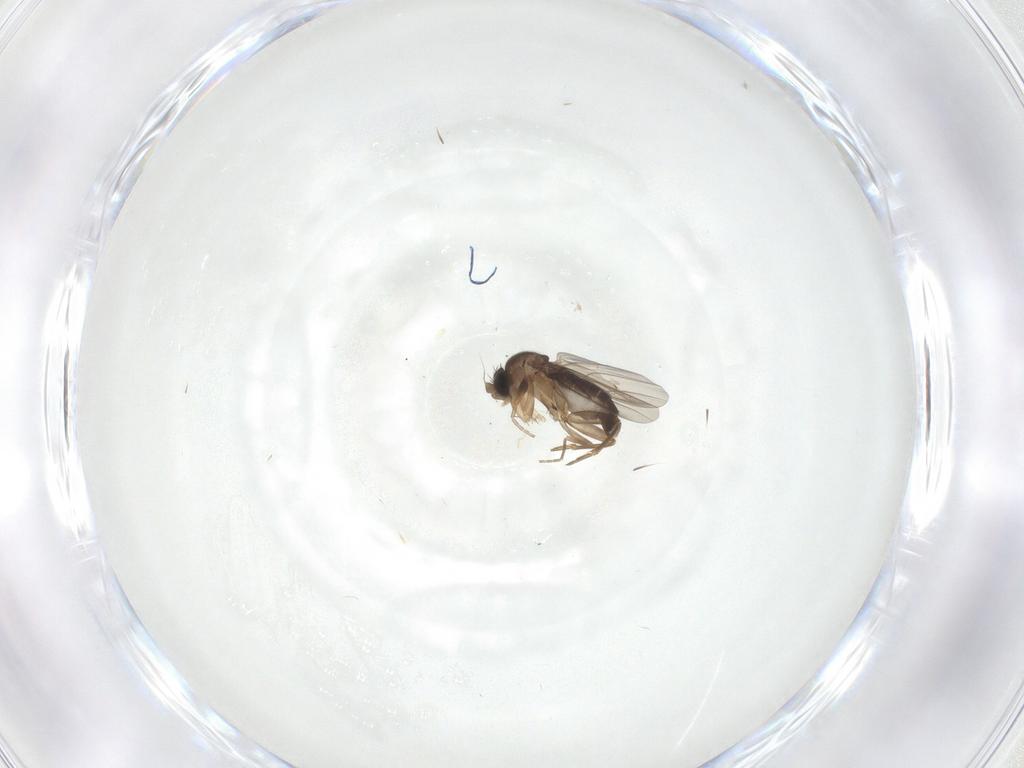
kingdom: Animalia
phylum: Arthropoda
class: Insecta
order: Diptera
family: Phoridae
